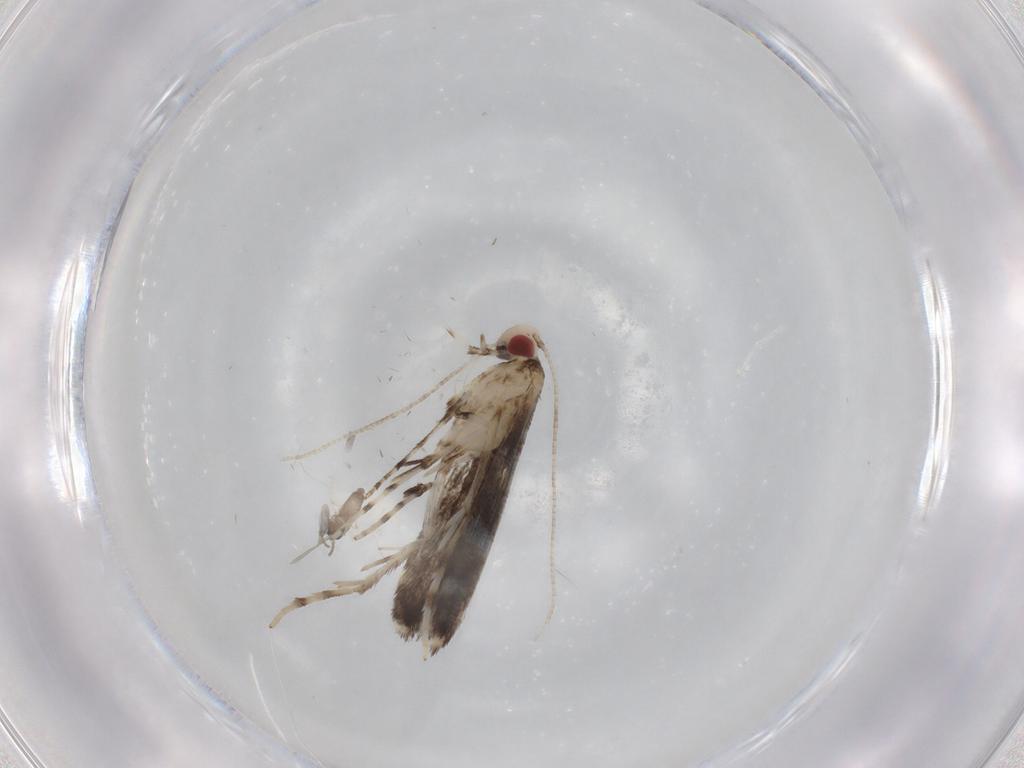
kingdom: Animalia
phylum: Arthropoda
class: Insecta
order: Lepidoptera
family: Gracillariidae
